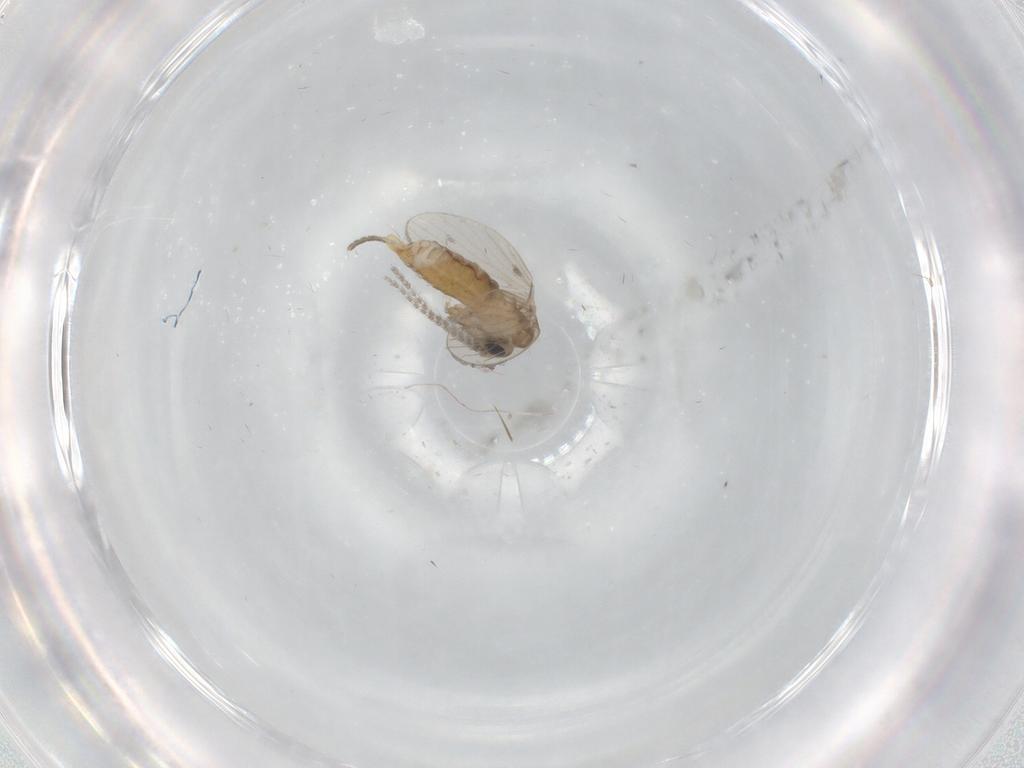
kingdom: Animalia
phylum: Arthropoda
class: Insecta
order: Diptera
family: Psychodidae
